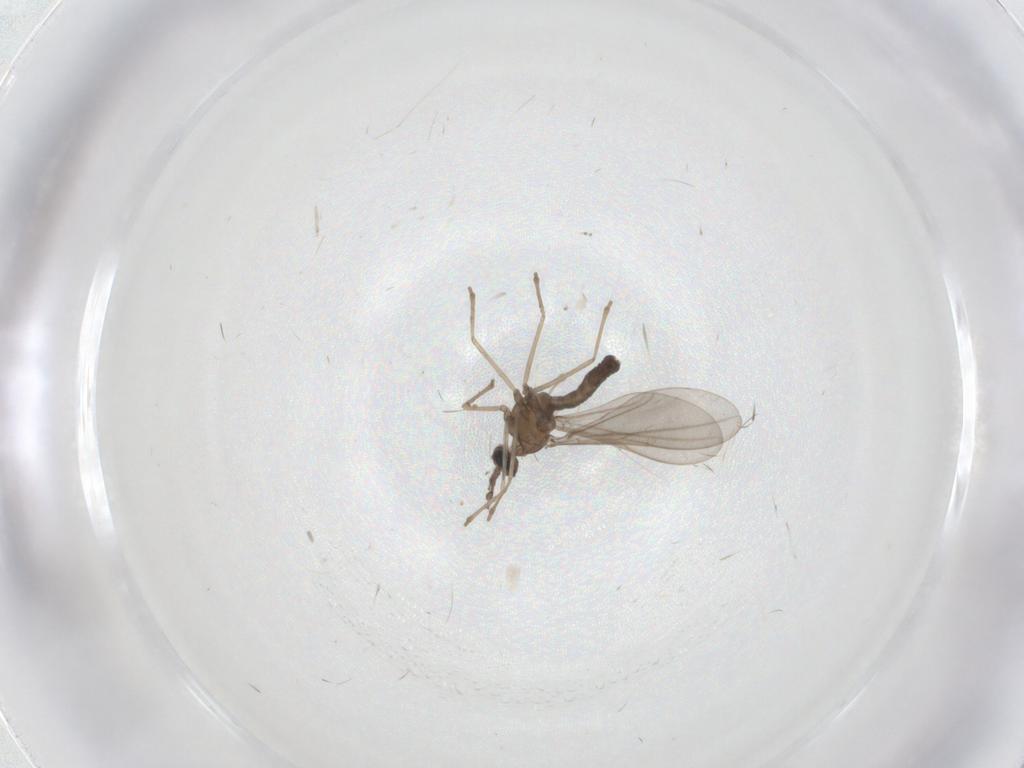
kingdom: Animalia
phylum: Arthropoda
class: Insecta
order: Diptera
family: Psychodidae
